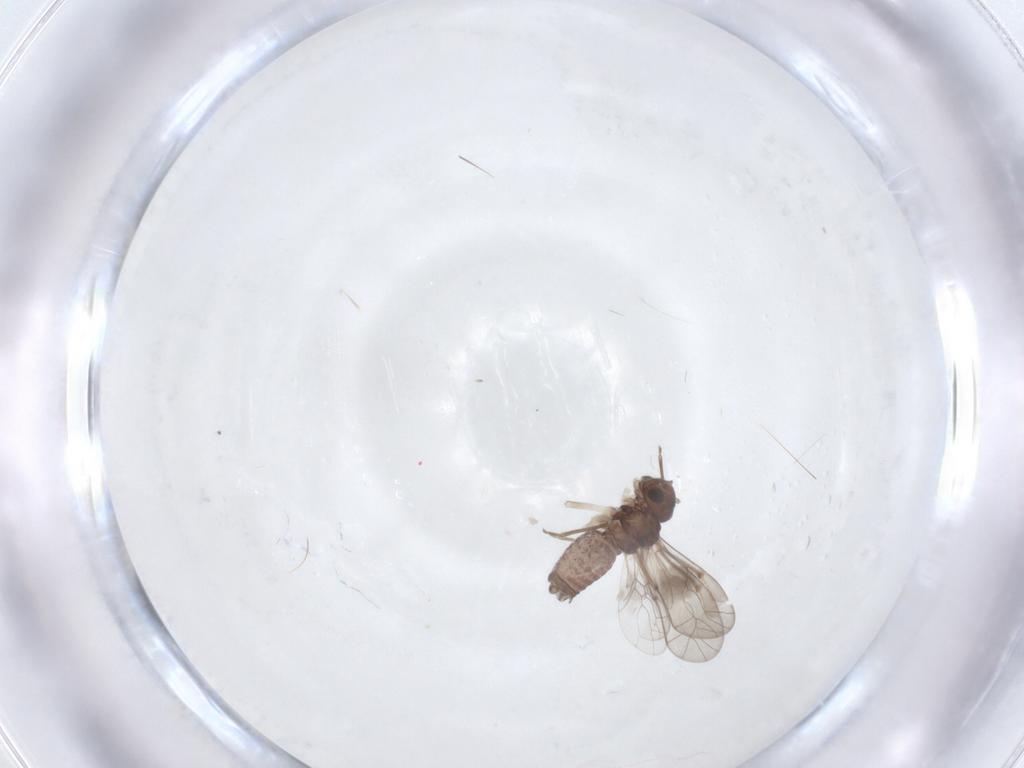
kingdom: Animalia
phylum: Arthropoda
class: Insecta
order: Psocodea
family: Peripsocidae
